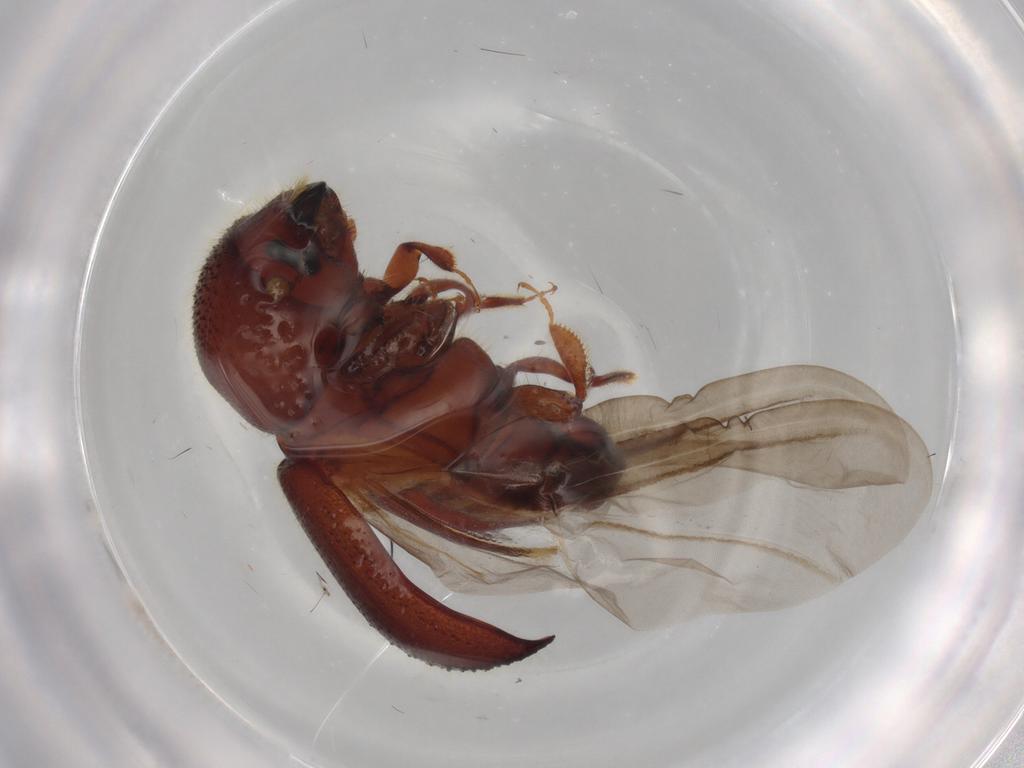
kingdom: Animalia
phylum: Arthropoda
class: Insecta
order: Coleoptera
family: Curculionidae
